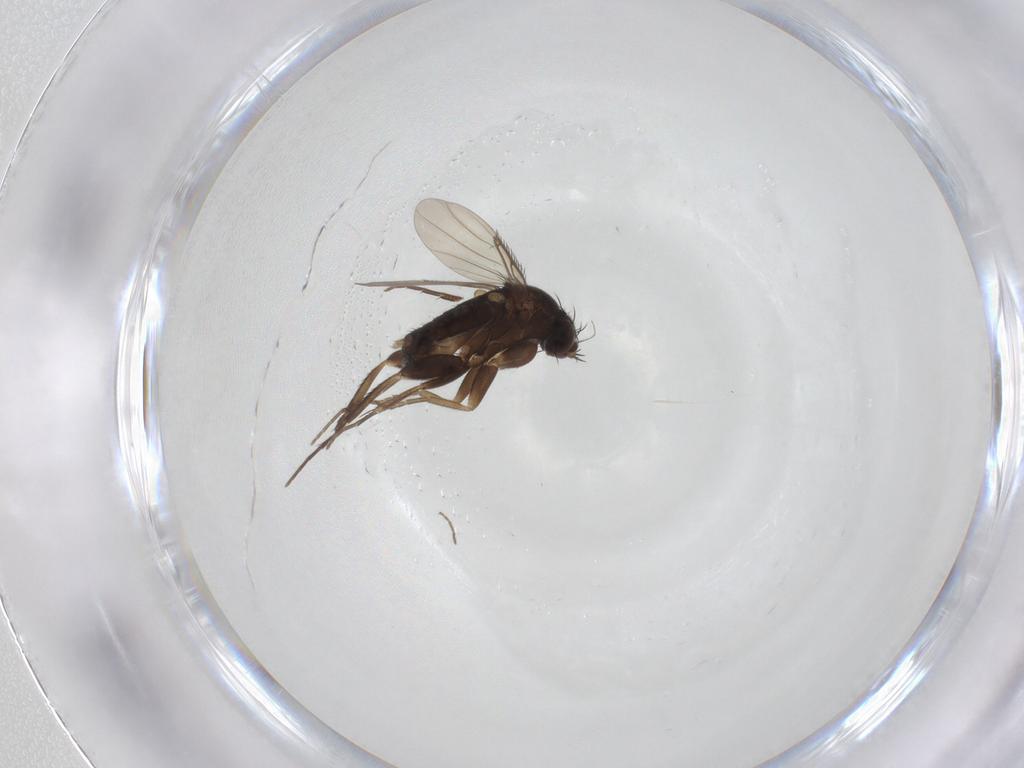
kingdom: Animalia
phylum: Arthropoda
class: Insecta
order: Diptera
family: Phoridae
